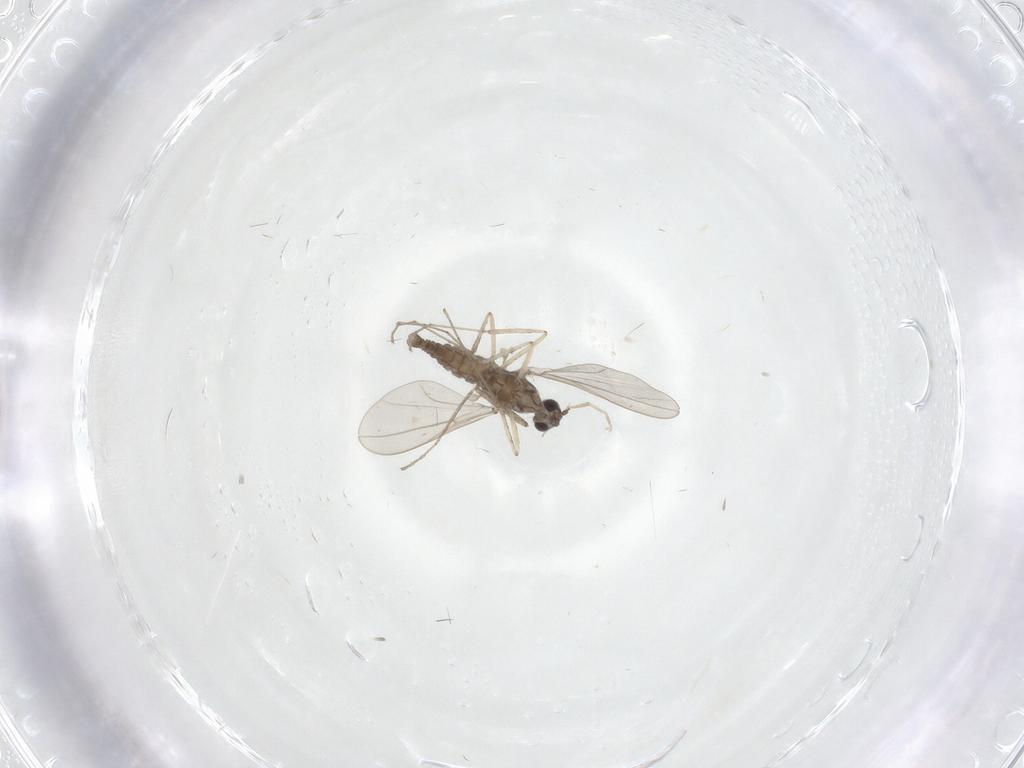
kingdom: Animalia
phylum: Arthropoda
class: Insecta
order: Diptera
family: Cecidomyiidae
